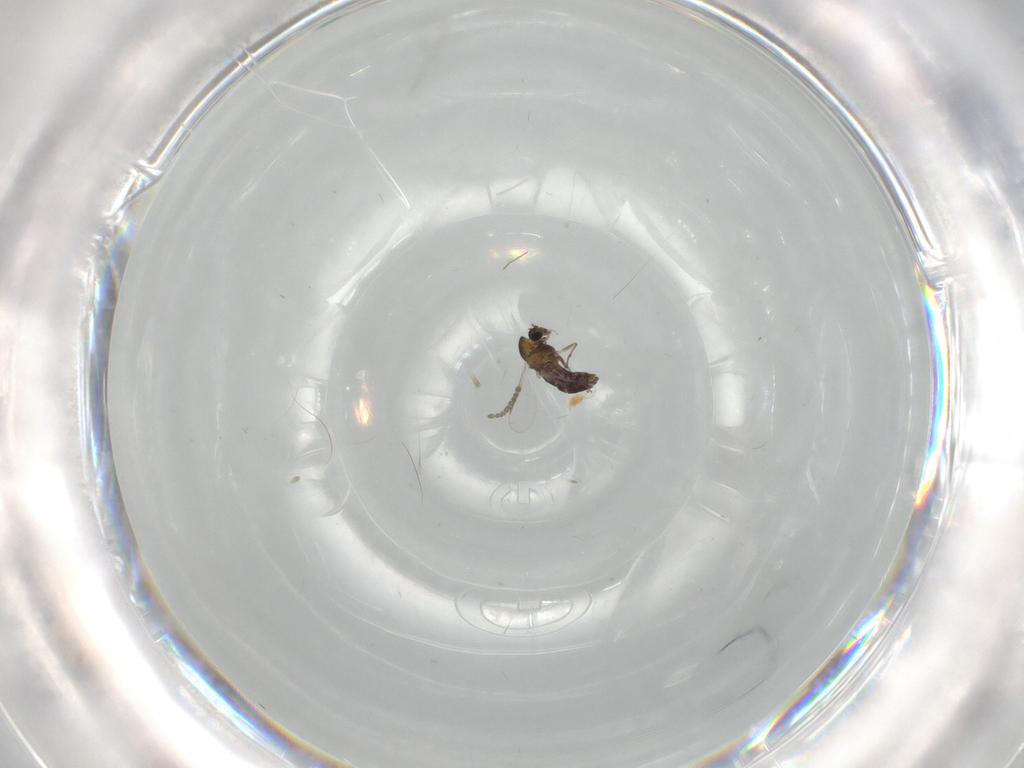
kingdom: Animalia
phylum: Arthropoda
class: Insecta
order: Diptera
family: Chironomidae
